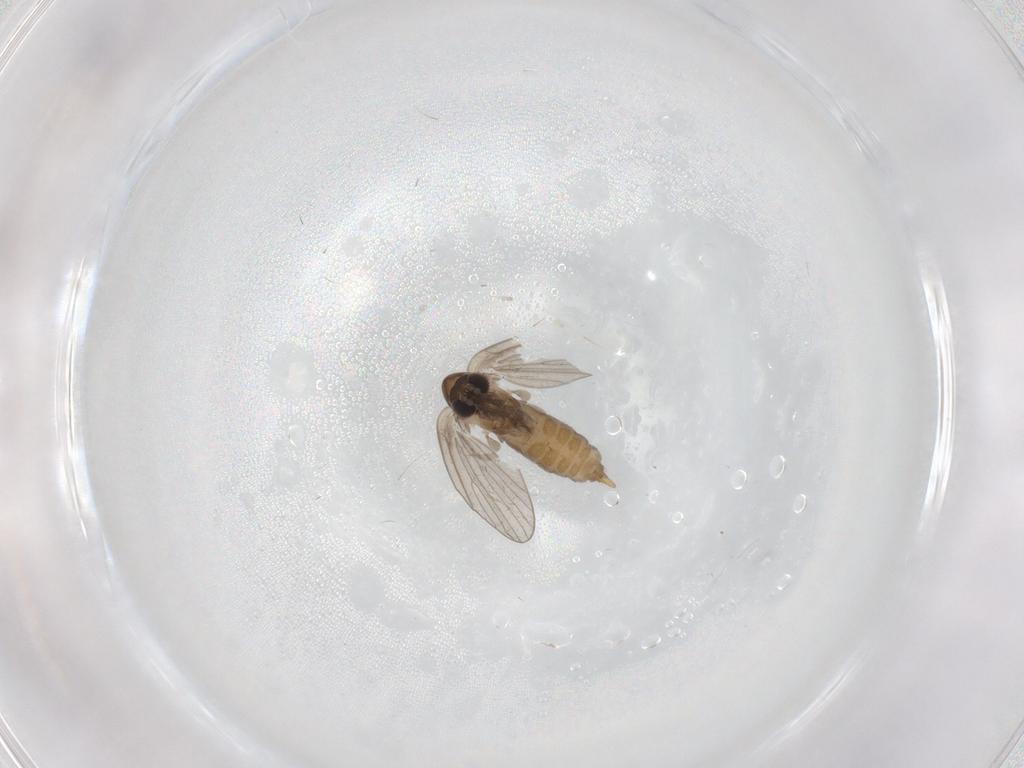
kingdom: Animalia
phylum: Arthropoda
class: Insecta
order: Diptera
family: Psychodidae
